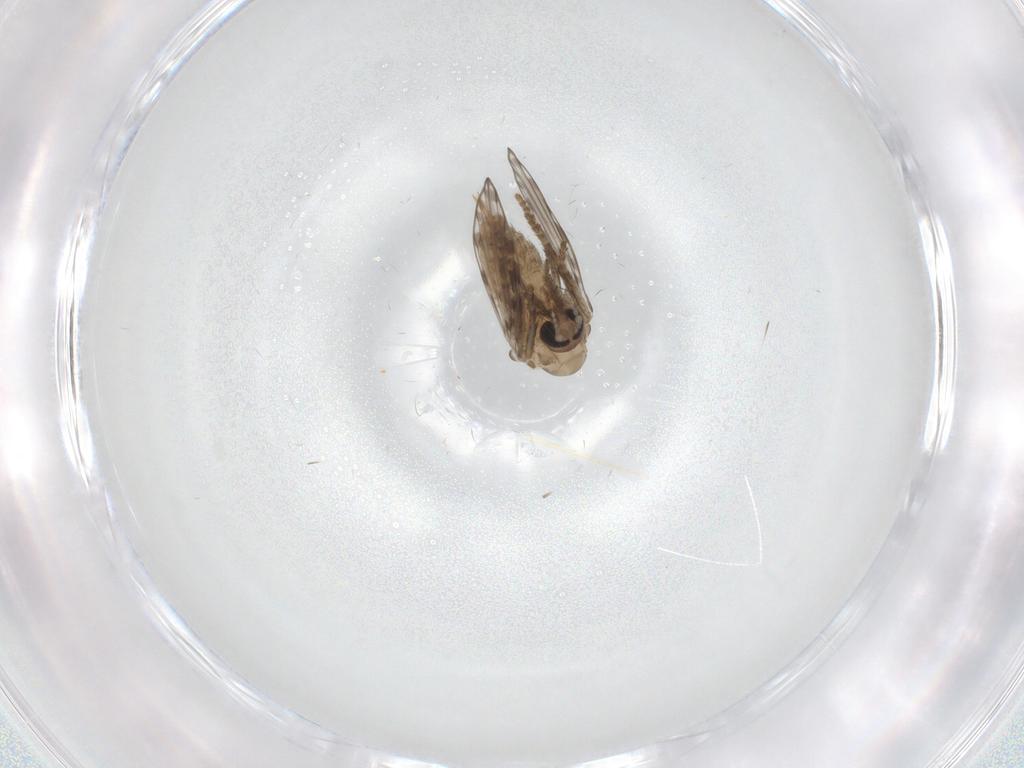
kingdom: Animalia
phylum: Arthropoda
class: Insecta
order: Diptera
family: Psychodidae
